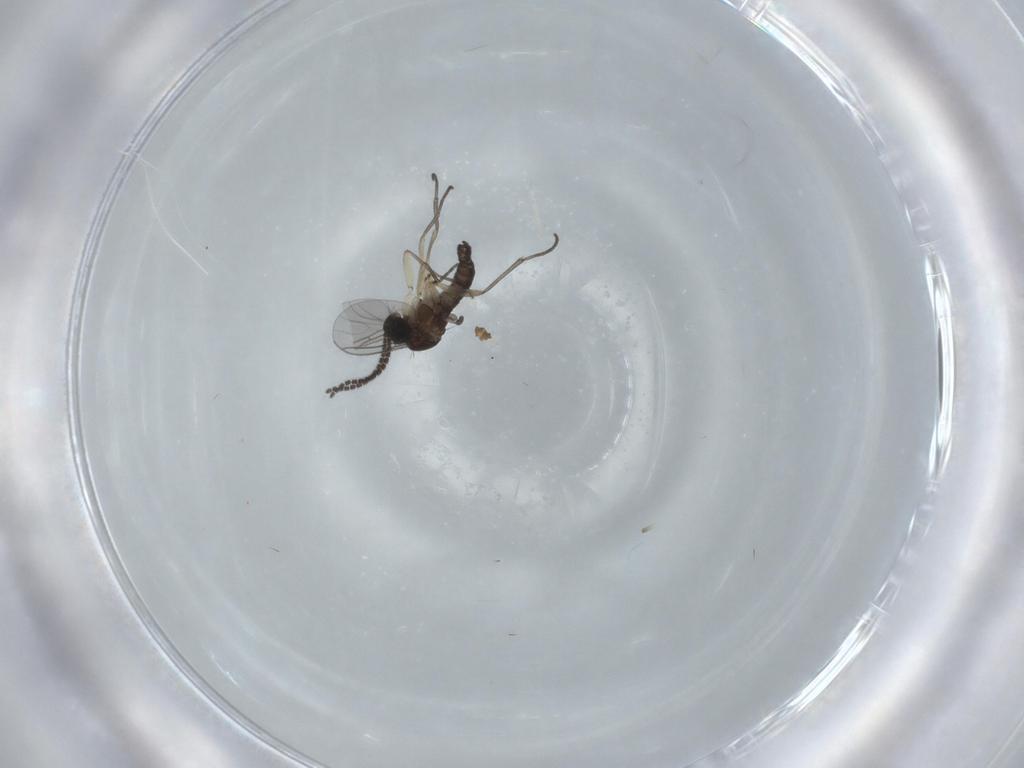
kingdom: Animalia
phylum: Arthropoda
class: Insecta
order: Diptera
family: Sciaridae
